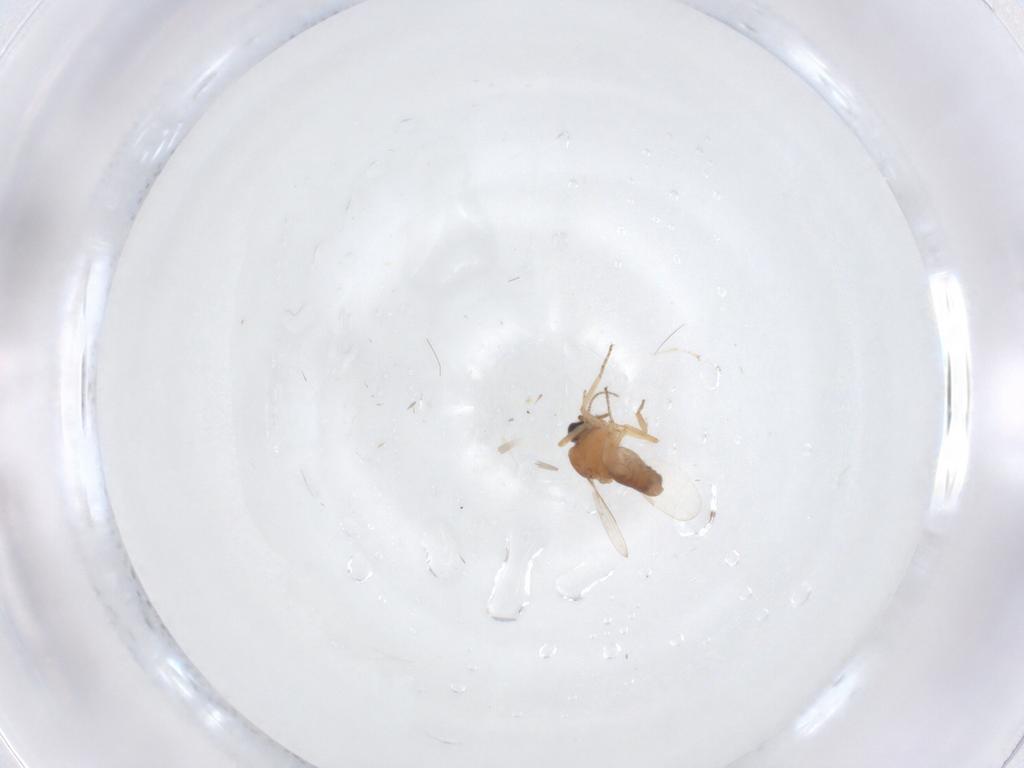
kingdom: Animalia
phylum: Arthropoda
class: Insecta
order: Diptera
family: Ceratopogonidae
